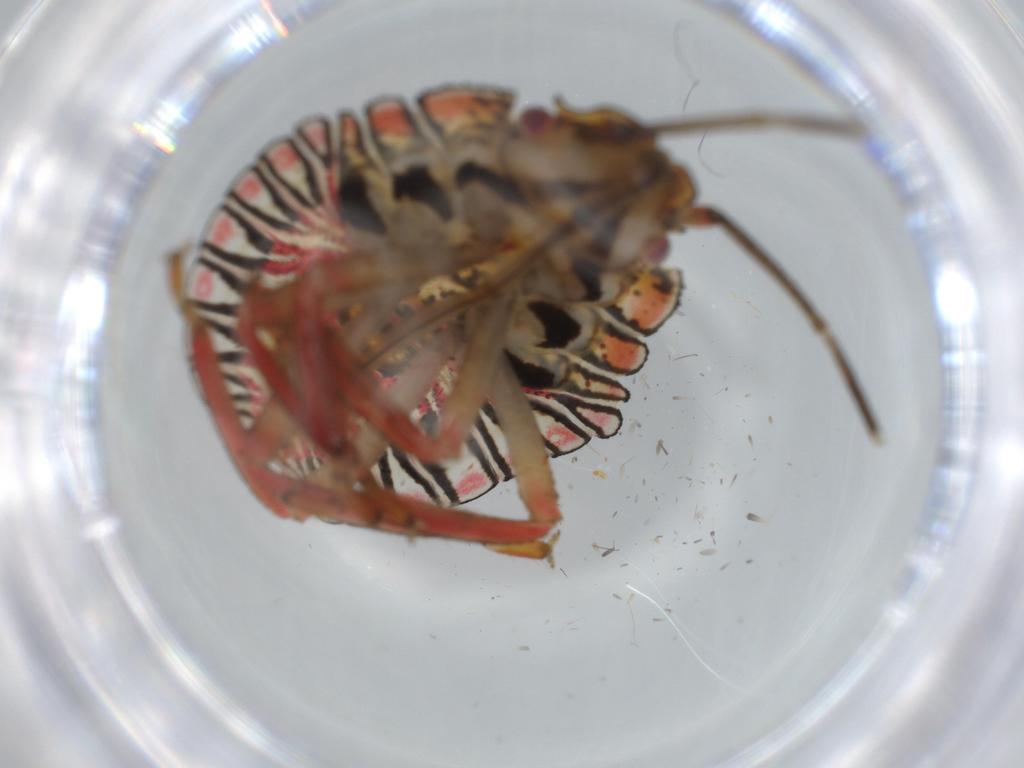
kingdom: Animalia
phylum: Arthropoda
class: Insecta
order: Hemiptera
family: Pentatomidae
